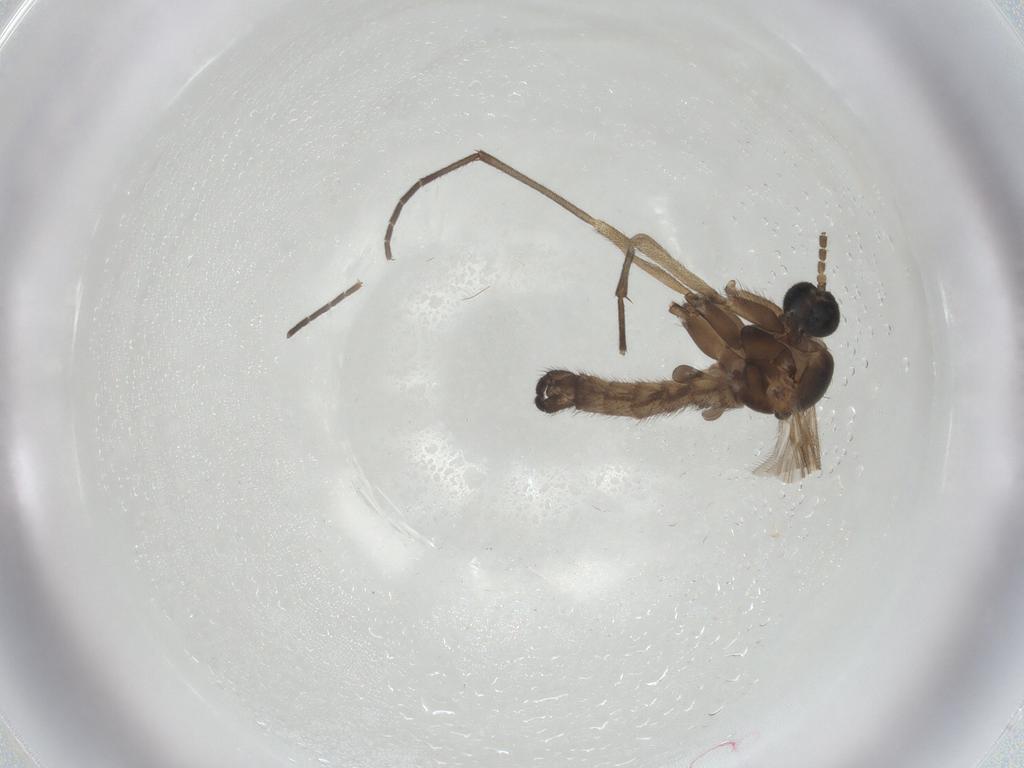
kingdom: Animalia
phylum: Arthropoda
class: Insecta
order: Diptera
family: Sciaridae
